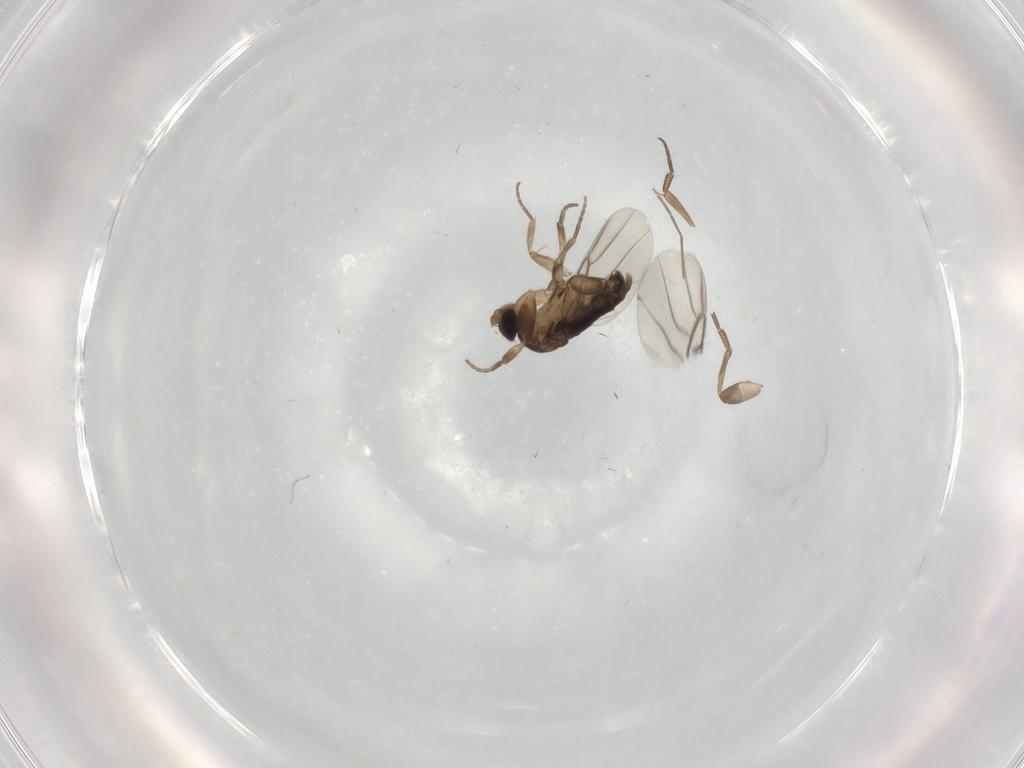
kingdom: Animalia
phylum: Arthropoda
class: Insecta
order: Diptera
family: Chironomidae
